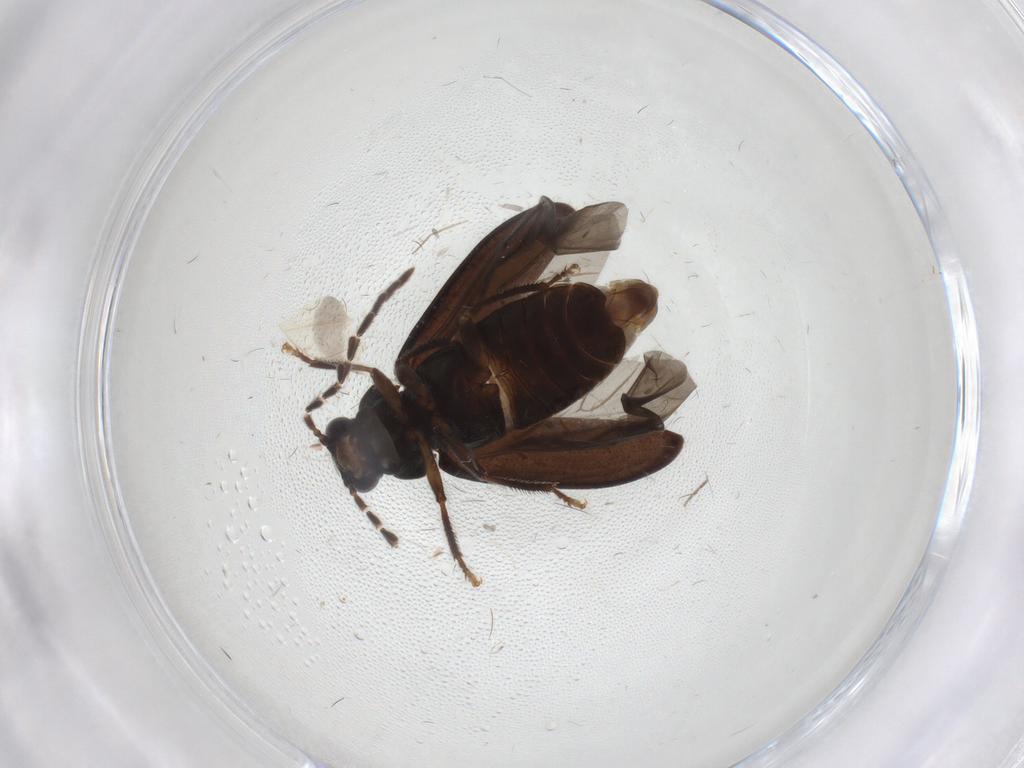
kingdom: Animalia
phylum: Arthropoda
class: Insecta
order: Coleoptera
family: Ptilodactylidae
